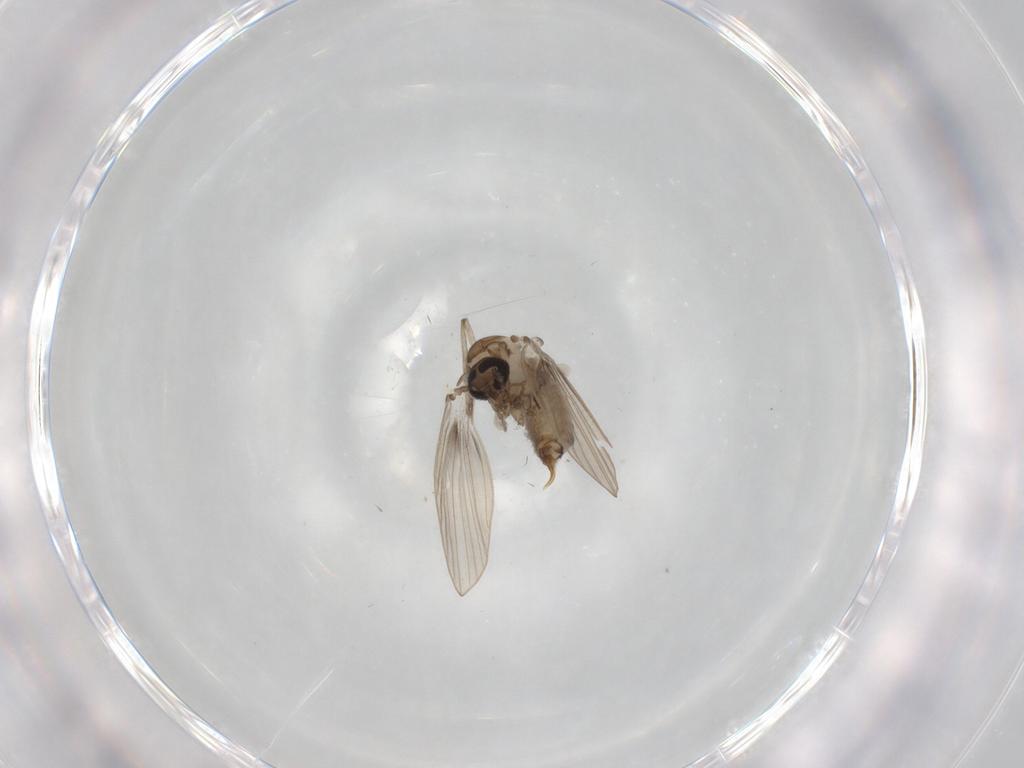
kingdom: Animalia
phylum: Arthropoda
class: Insecta
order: Diptera
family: Psychodidae
